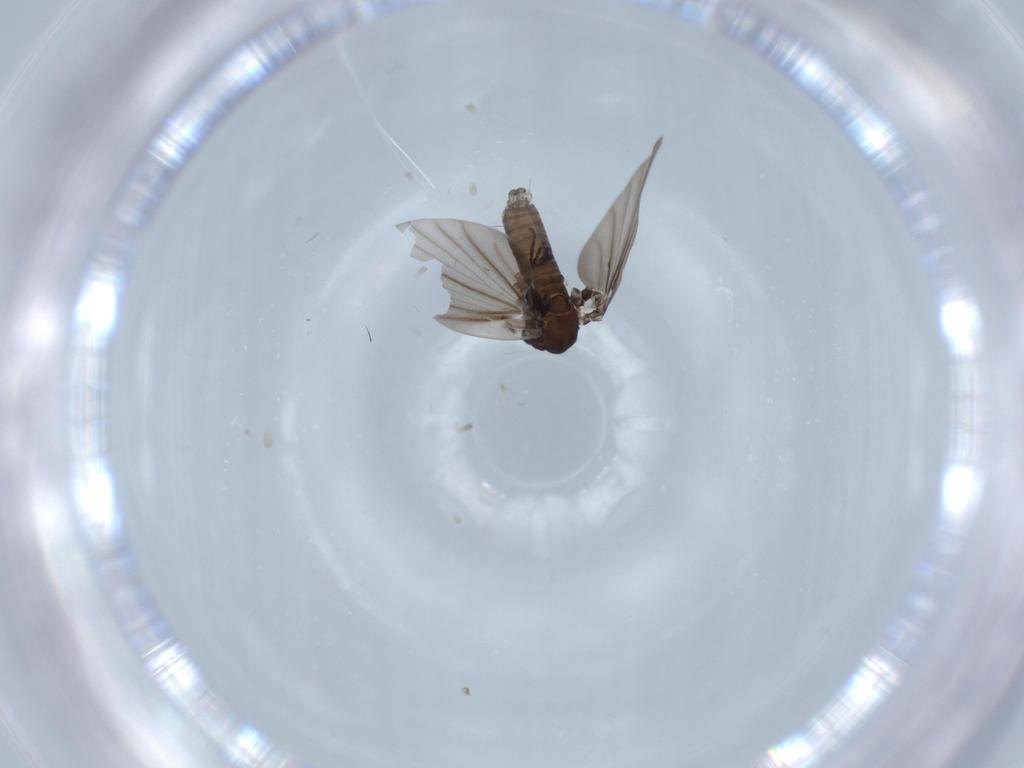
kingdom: Animalia
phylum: Arthropoda
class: Insecta
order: Diptera
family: Psychodidae
